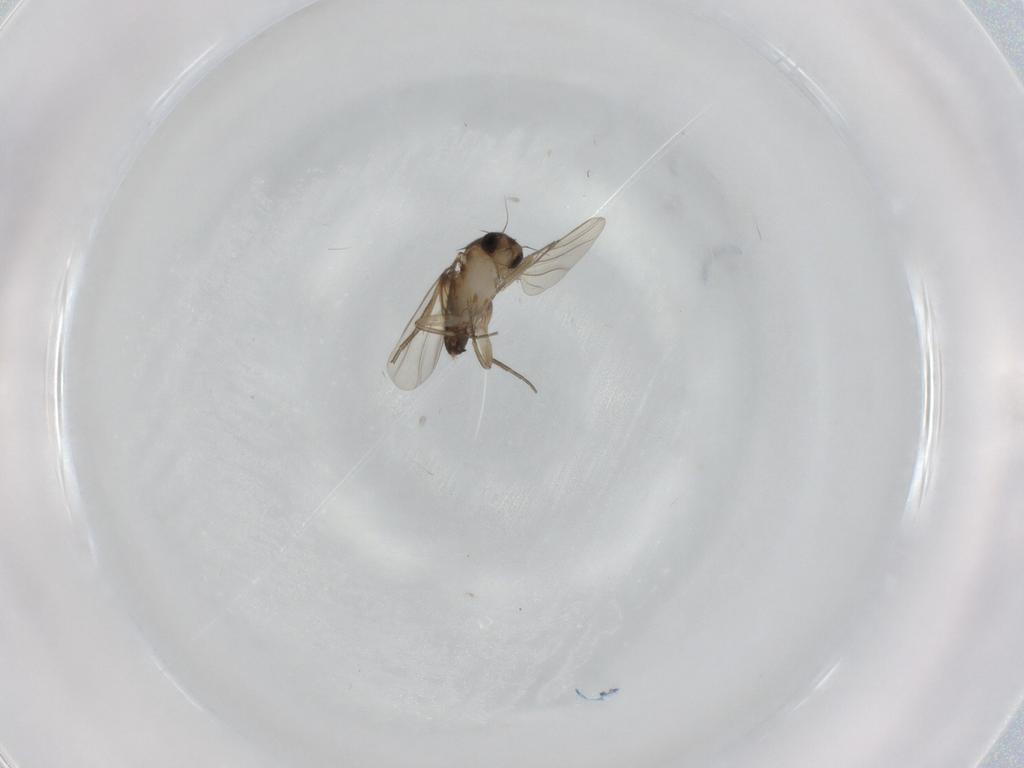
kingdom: Animalia
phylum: Arthropoda
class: Insecta
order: Diptera
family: Phoridae
